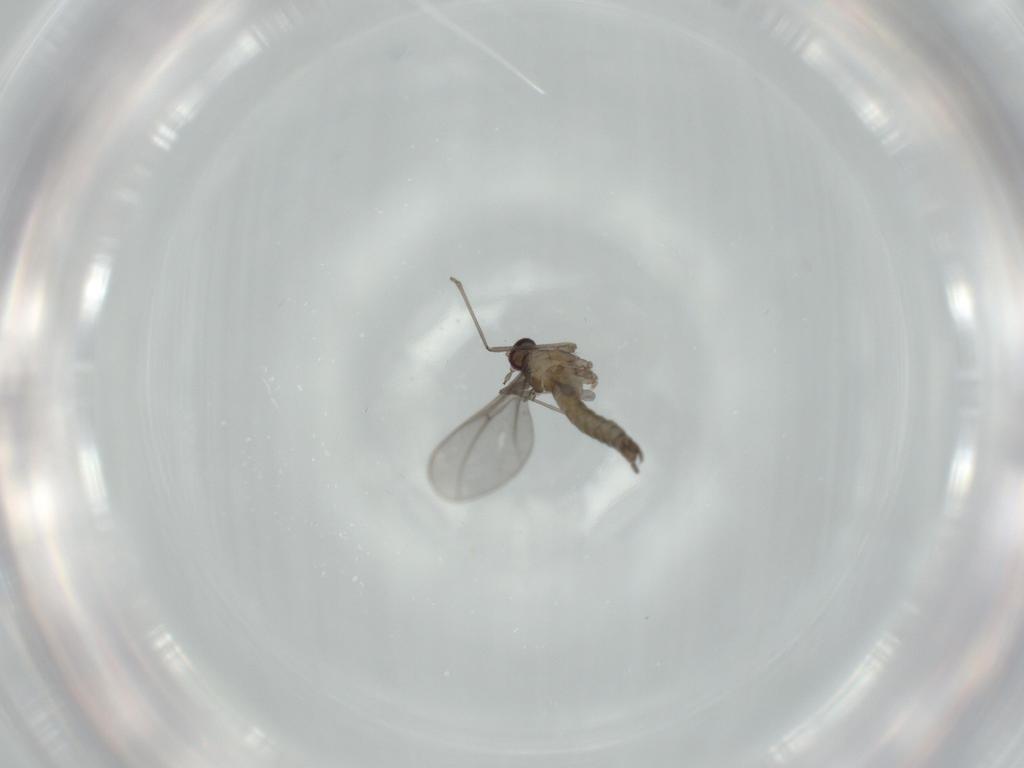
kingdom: Animalia
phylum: Arthropoda
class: Insecta
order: Diptera
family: Cecidomyiidae
